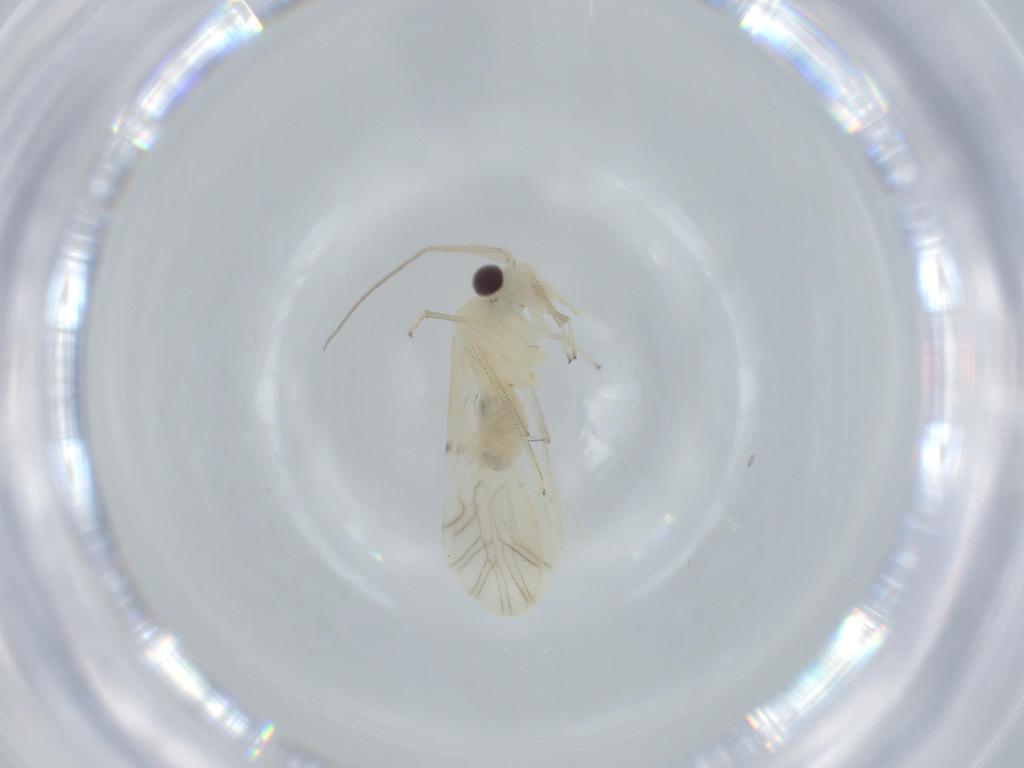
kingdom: Animalia
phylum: Arthropoda
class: Insecta
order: Psocodea
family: Caeciliusidae
